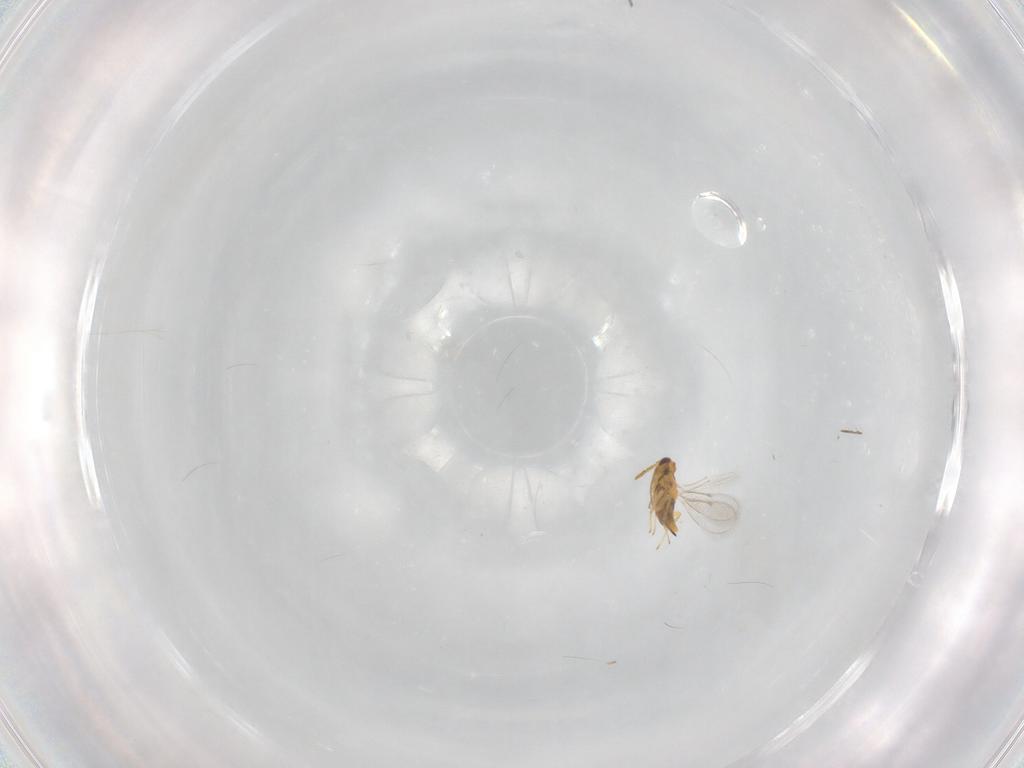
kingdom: Animalia
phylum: Arthropoda
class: Insecta
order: Hymenoptera
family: Aphelinidae
